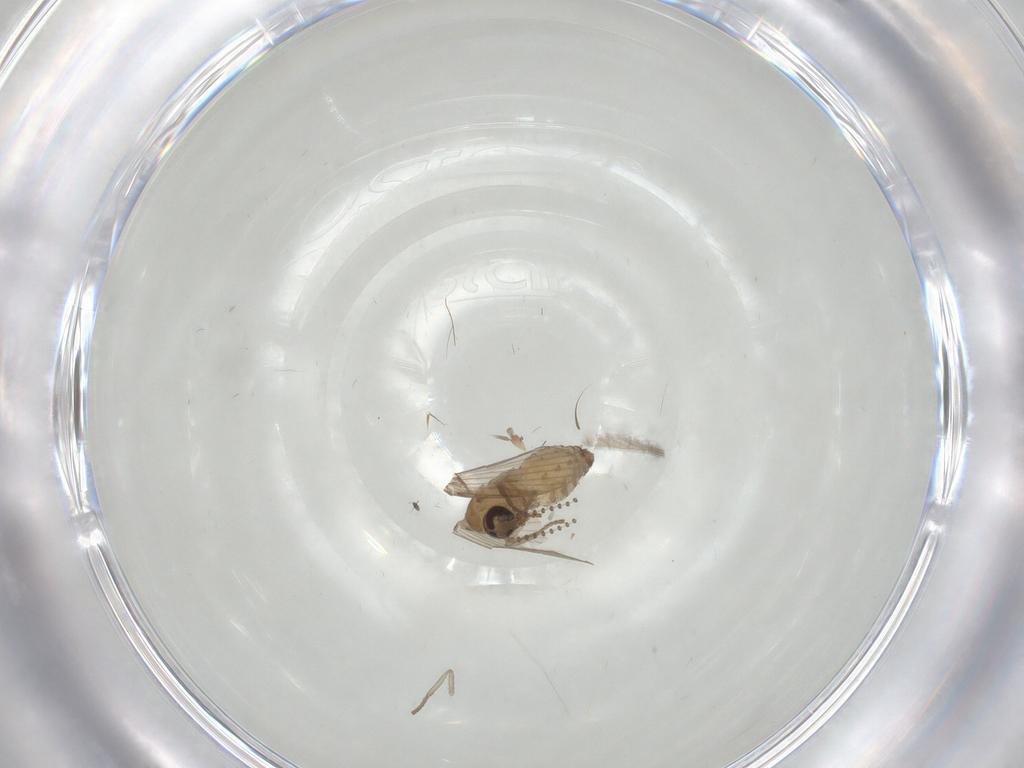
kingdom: Animalia
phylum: Arthropoda
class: Insecta
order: Diptera
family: Psychodidae
